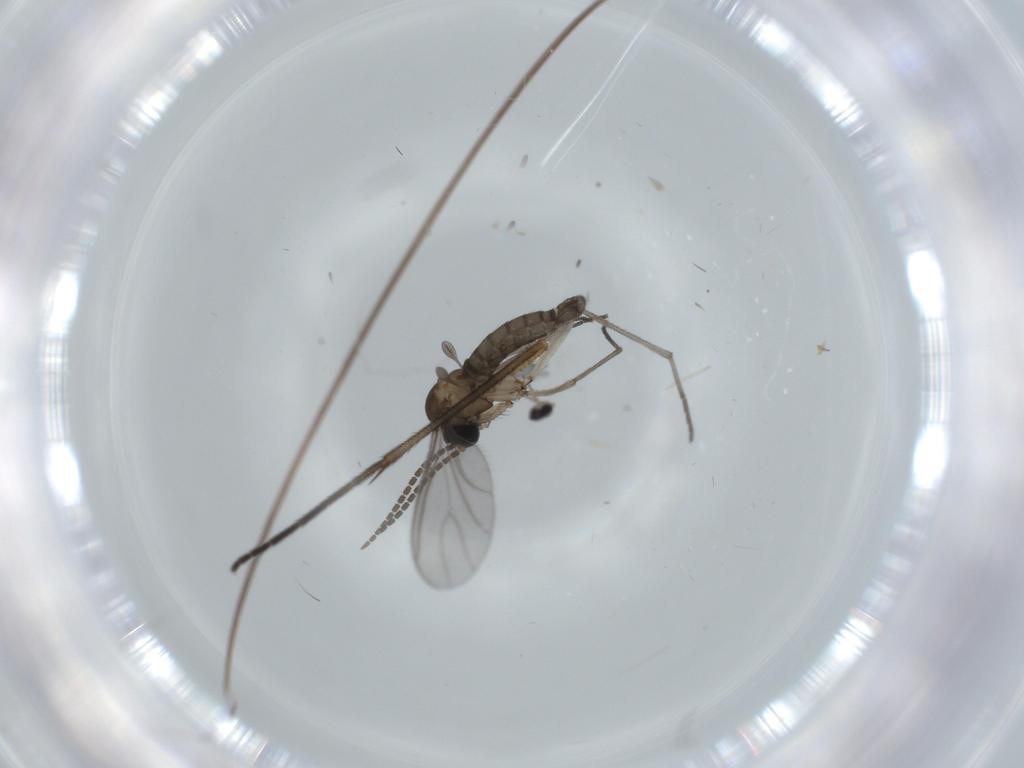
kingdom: Animalia
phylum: Arthropoda
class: Insecta
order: Diptera
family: Cecidomyiidae
